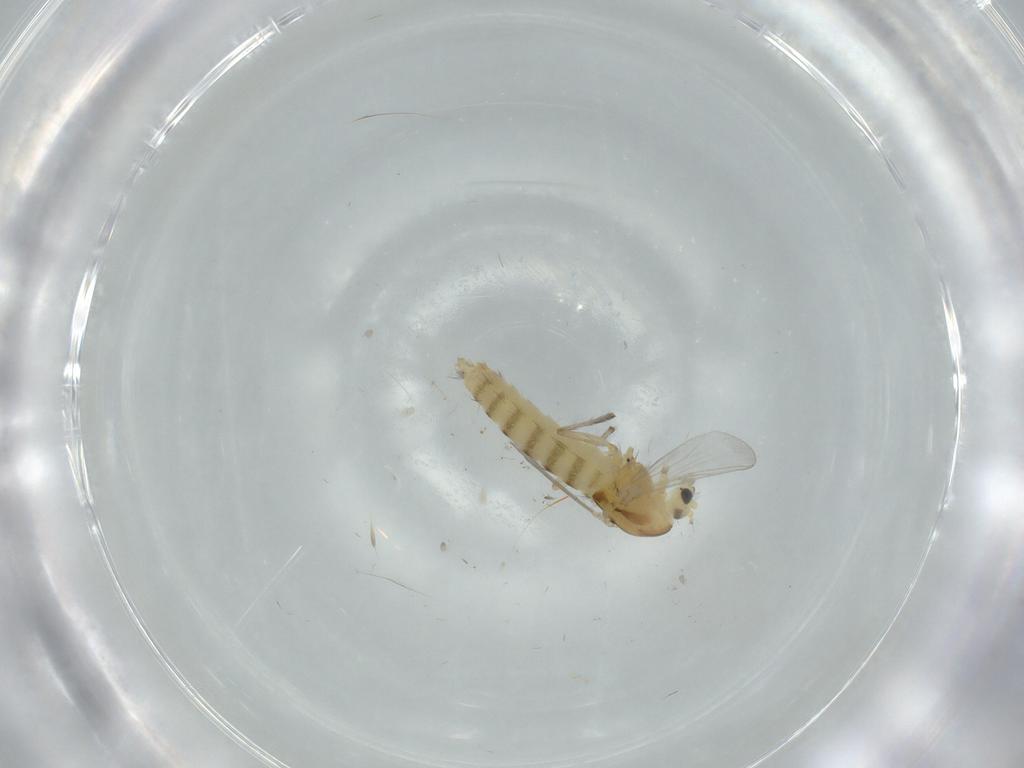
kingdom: Animalia
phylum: Arthropoda
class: Insecta
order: Diptera
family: Chironomidae
